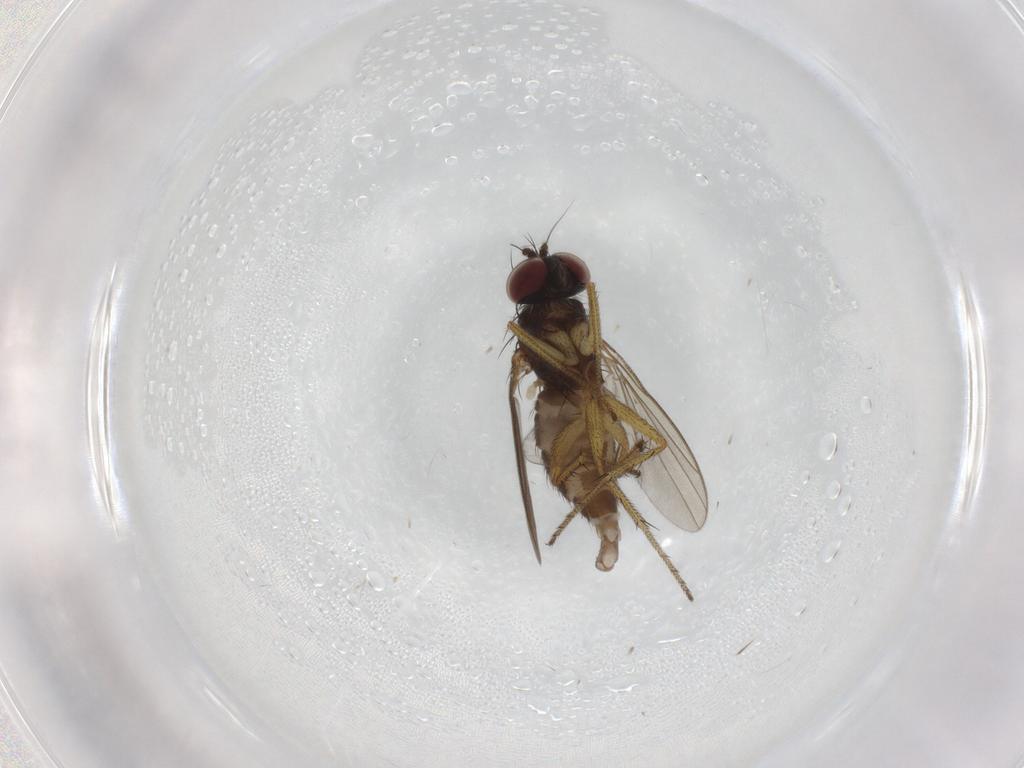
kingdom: Animalia
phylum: Arthropoda
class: Insecta
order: Diptera
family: Dolichopodidae
